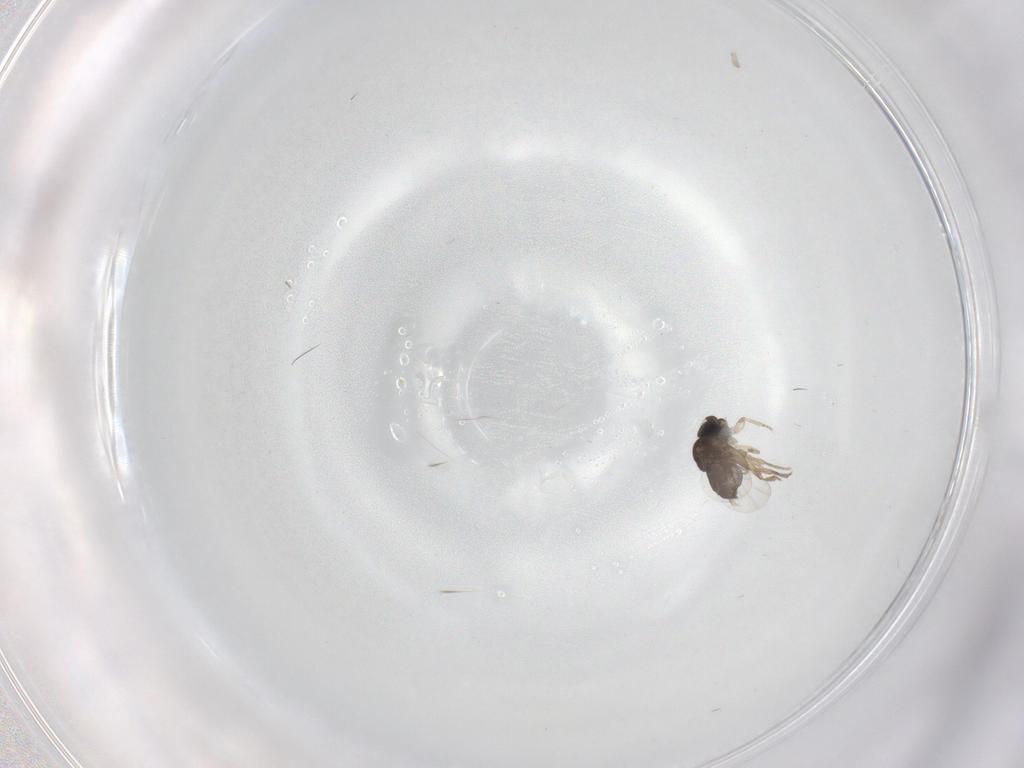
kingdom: Animalia
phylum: Arthropoda
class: Insecta
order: Diptera
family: Phoridae
